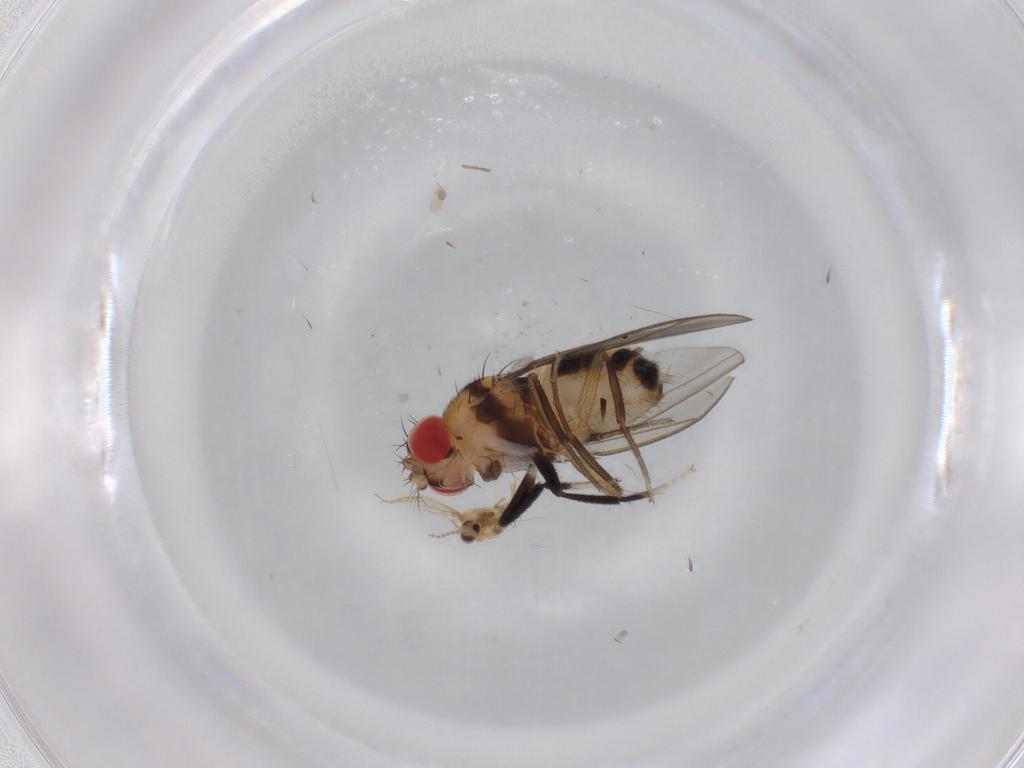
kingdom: Animalia
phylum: Arthropoda
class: Insecta
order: Diptera
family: Drosophilidae
